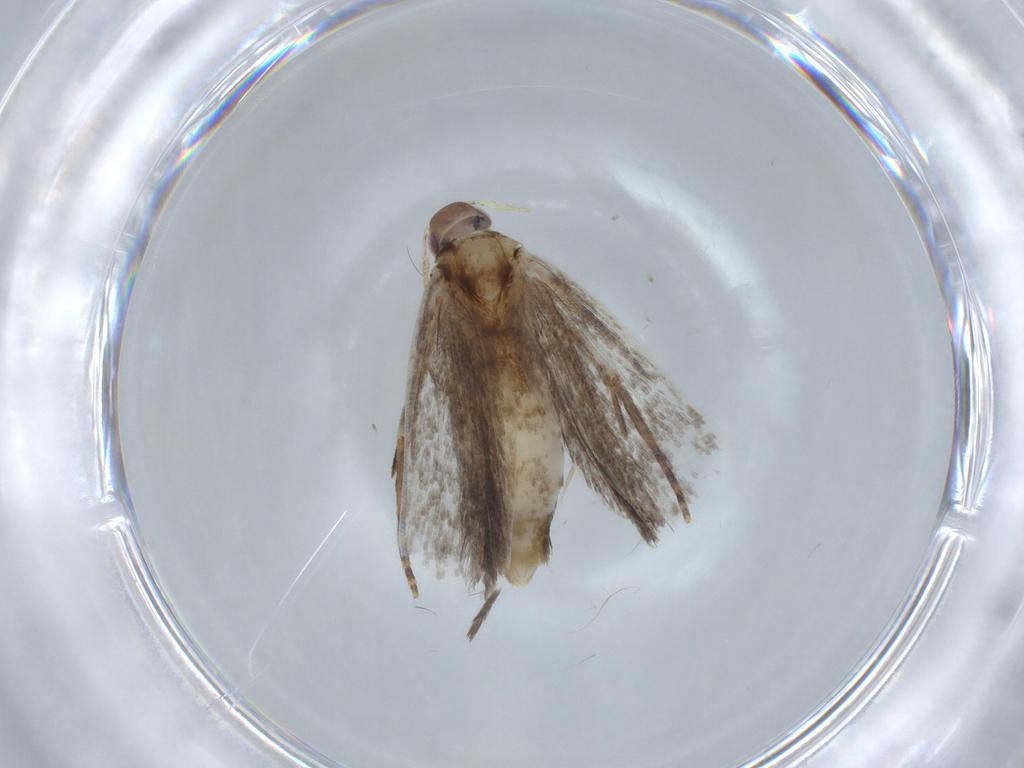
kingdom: Animalia
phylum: Arthropoda
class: Insecta
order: Lepidoptera
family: Gelechiidae
